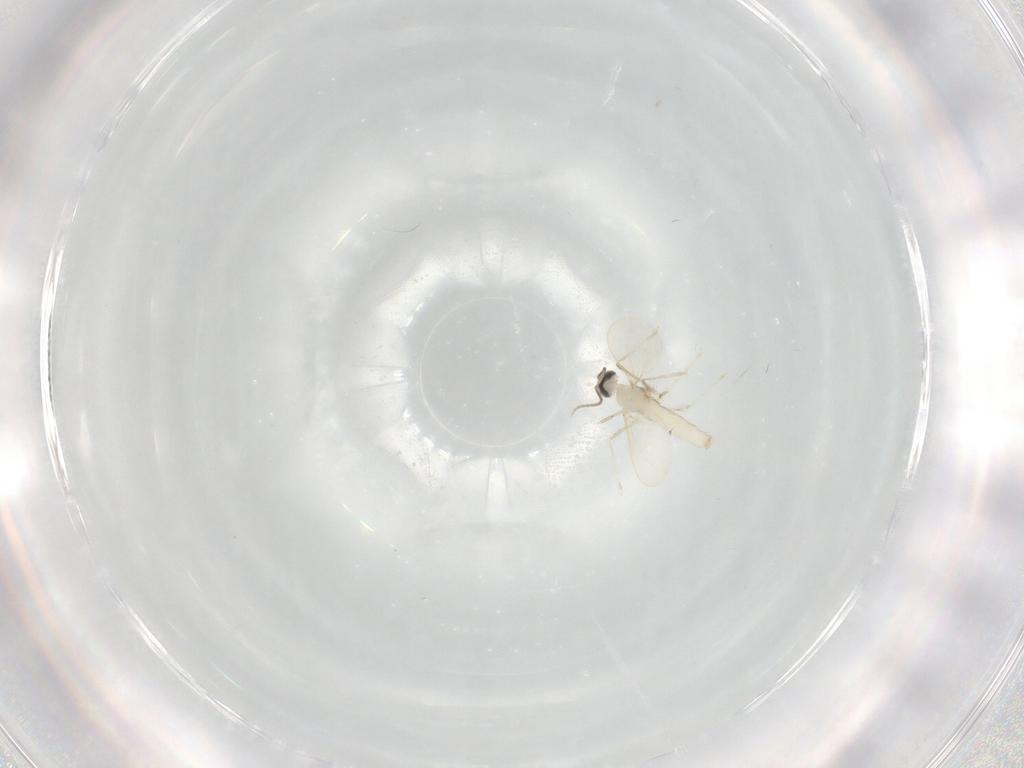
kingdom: Animalia
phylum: Arthropoda
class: Insecta
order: Diptera
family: Cecidomyiidae
